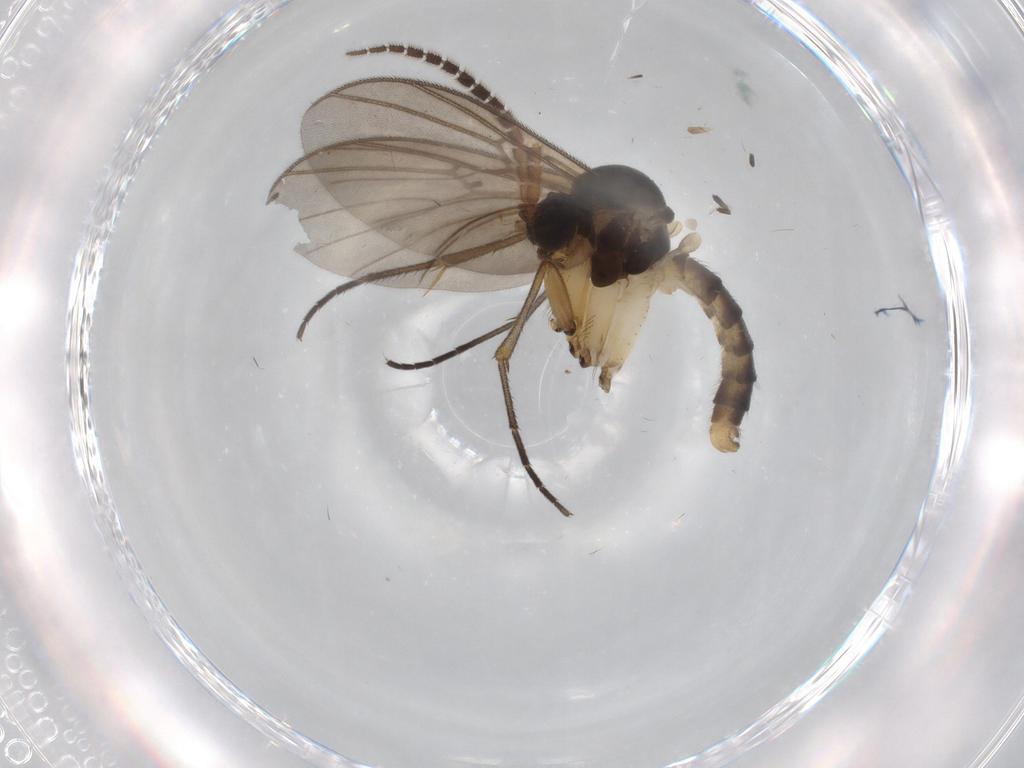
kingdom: Animalia
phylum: Arthropoda
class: Insecta
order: Diptera
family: Sciaridae
